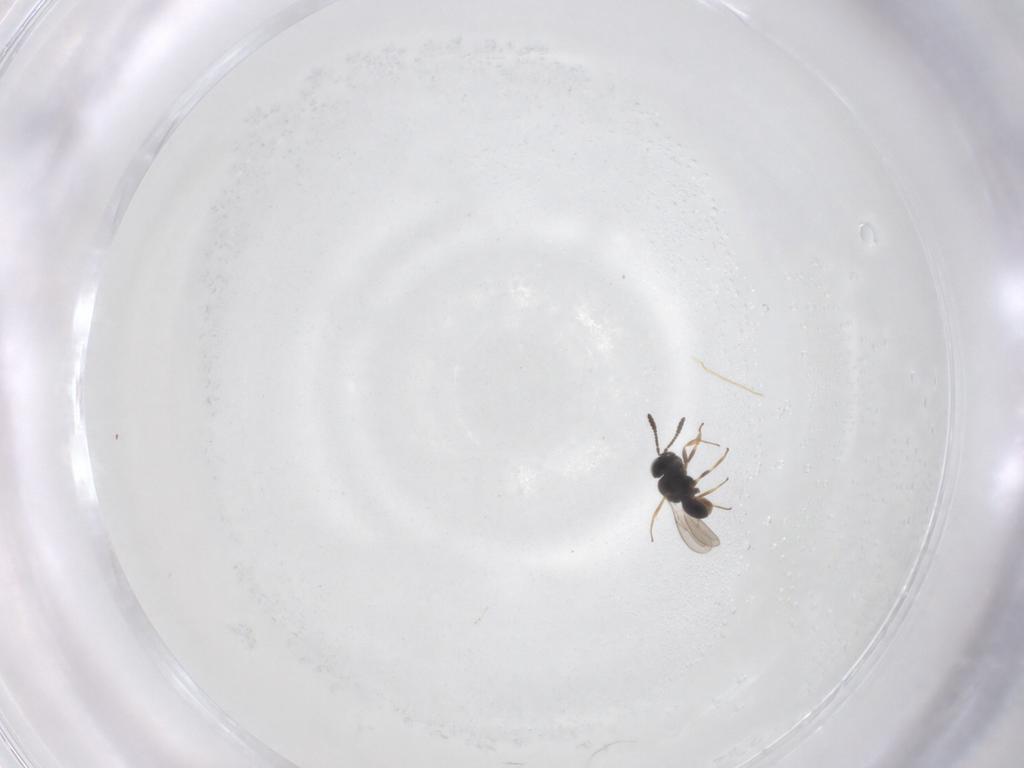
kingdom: Animalia
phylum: Arthropoda
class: Insecta
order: Hymenoptera
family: Scelionidae
